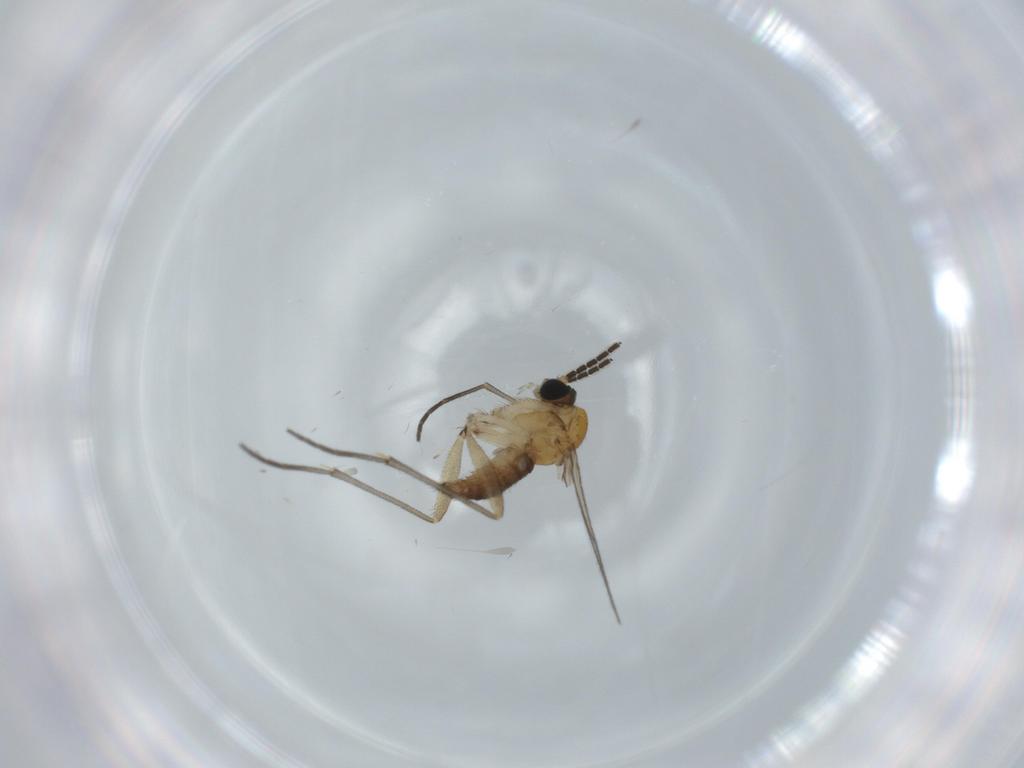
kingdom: Animalia
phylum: Arthropoda
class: Insecta
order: Diptera
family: Sciaridae
